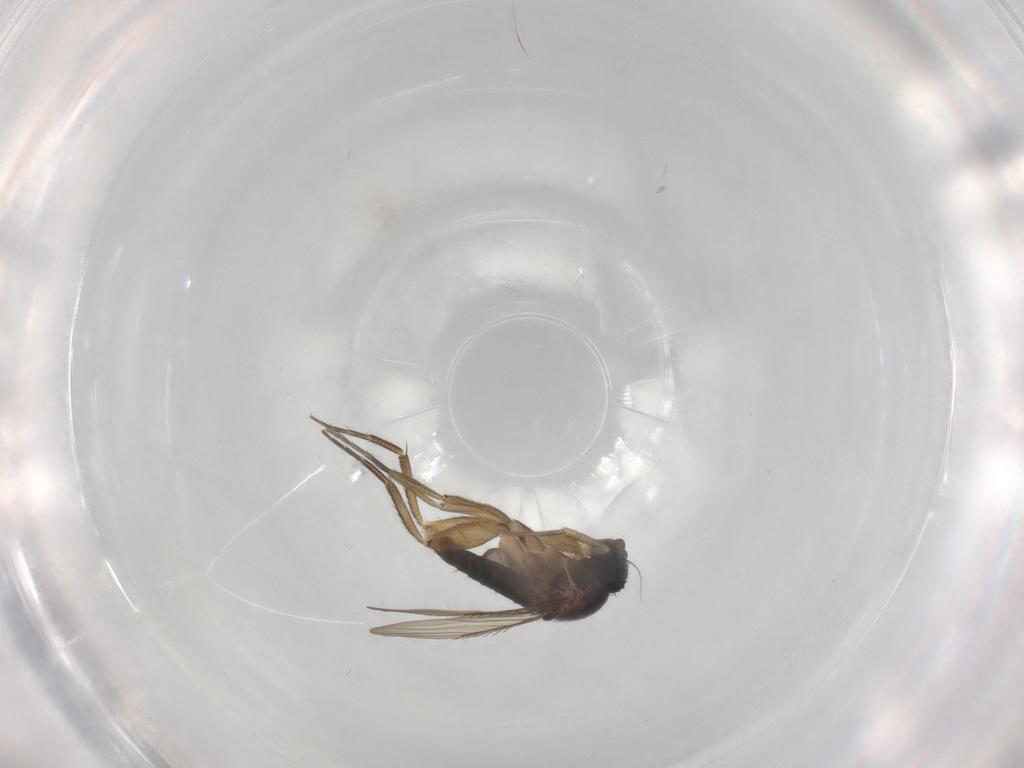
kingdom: Animalia
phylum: Arthropoda
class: Insecta
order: Diptera
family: Phoridae
